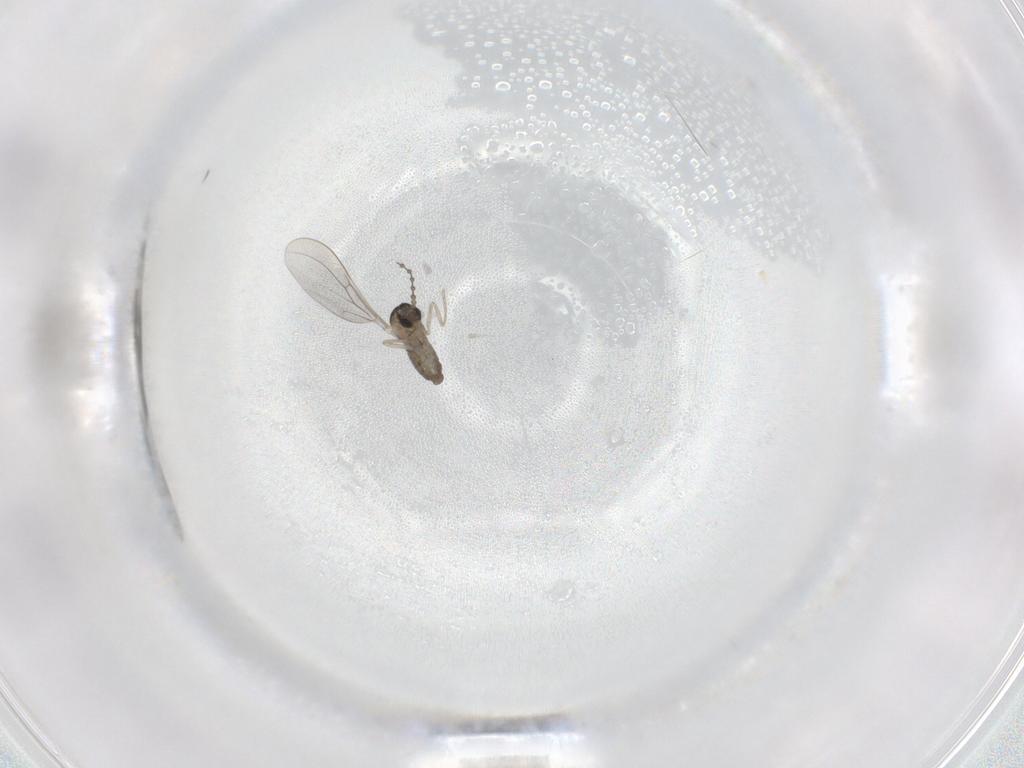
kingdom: Animalia
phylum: Arthropoda
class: Insecta
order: Diptera
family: Cecidomyiidae
